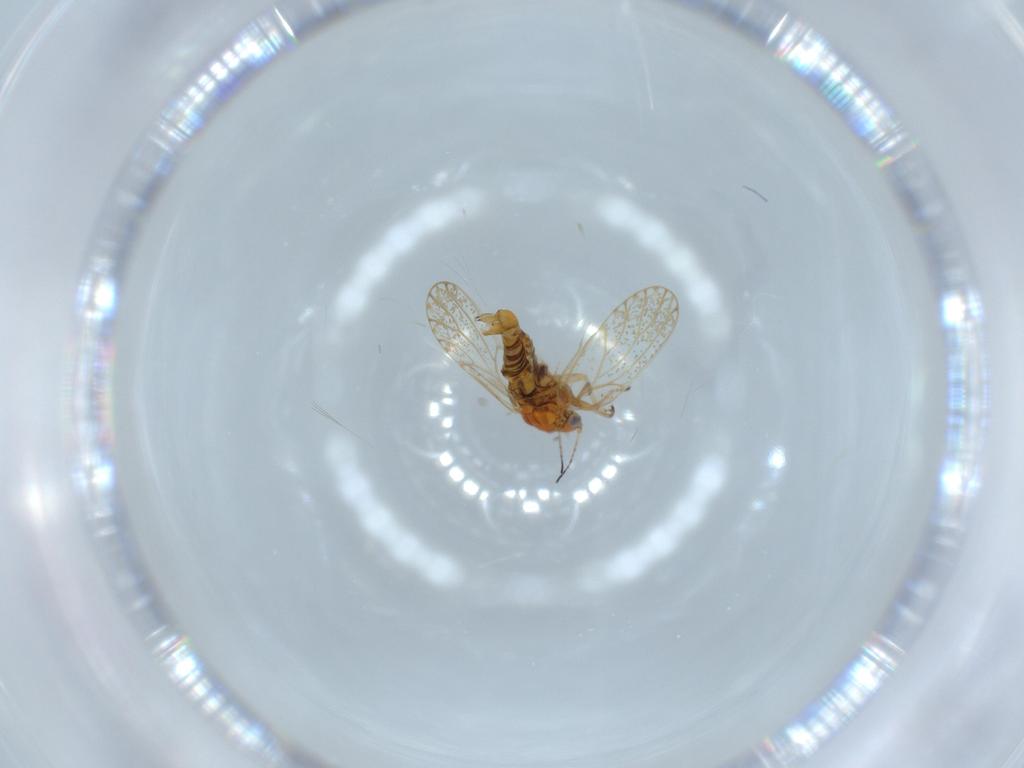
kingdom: Animalia
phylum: Arthropoda
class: Insecta
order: Hemiptera
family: Psyllidae
